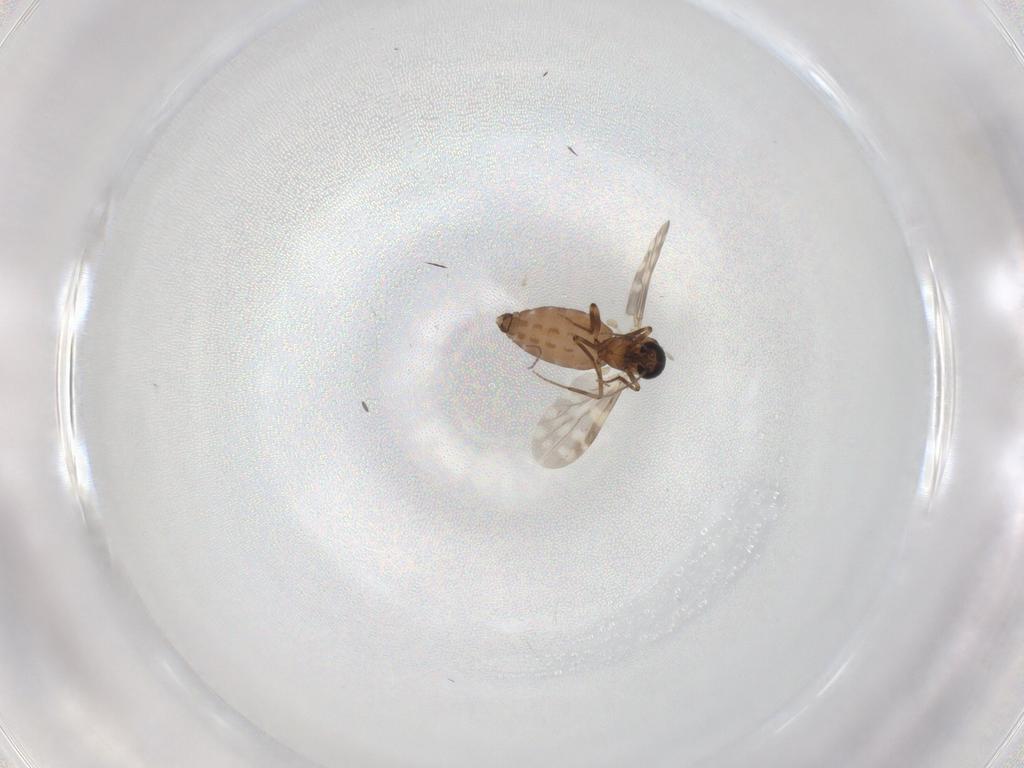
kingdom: Animalia
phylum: Arthropoda
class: Insecta
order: Diptera
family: Cecidomyiidae
